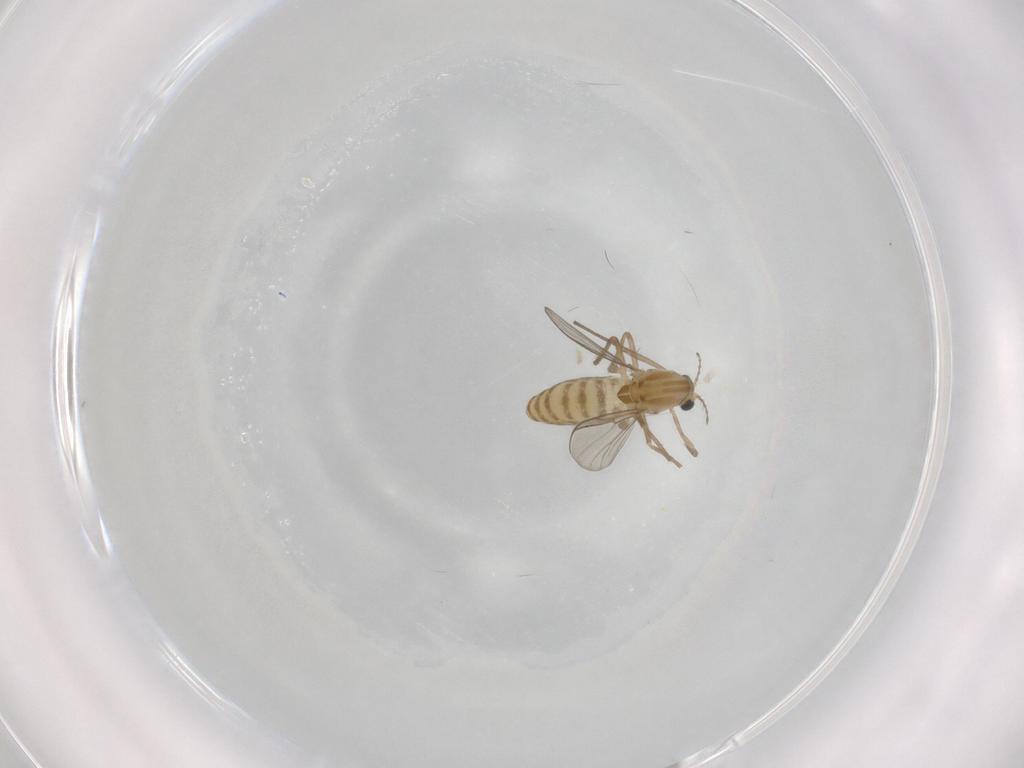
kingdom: Animalia
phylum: Arthropoda
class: Insecta
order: Diptera
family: Chironomidae
